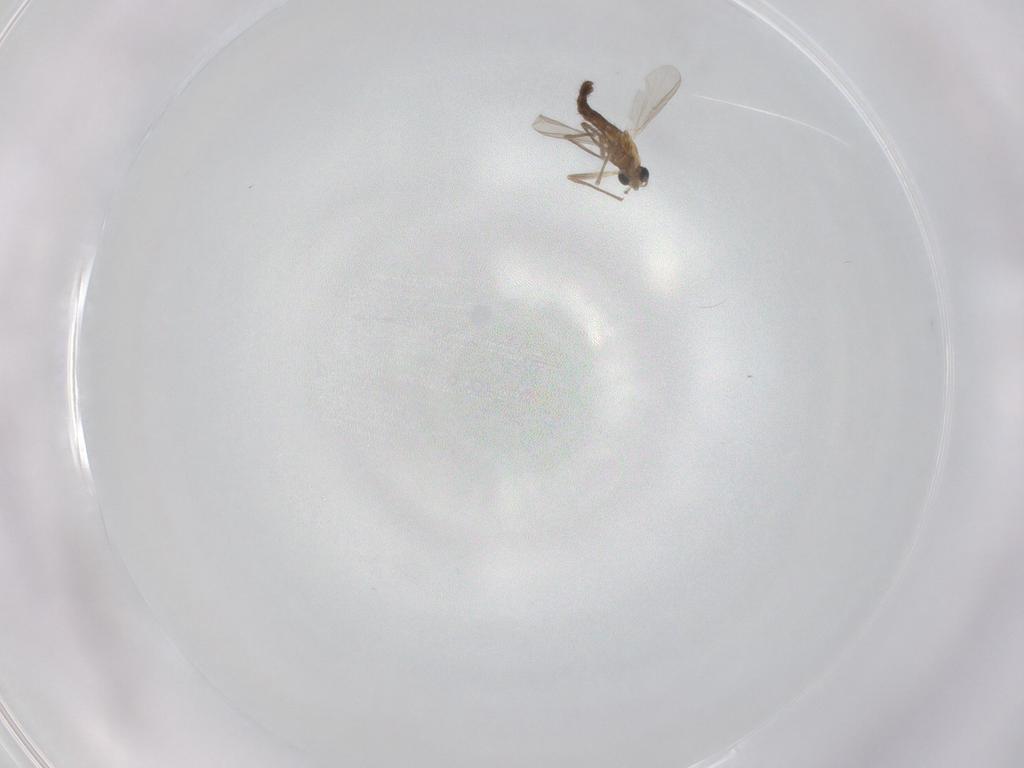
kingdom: Animalia
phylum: Arthropoda
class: Insecta
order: Diptera
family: Chironomidae
